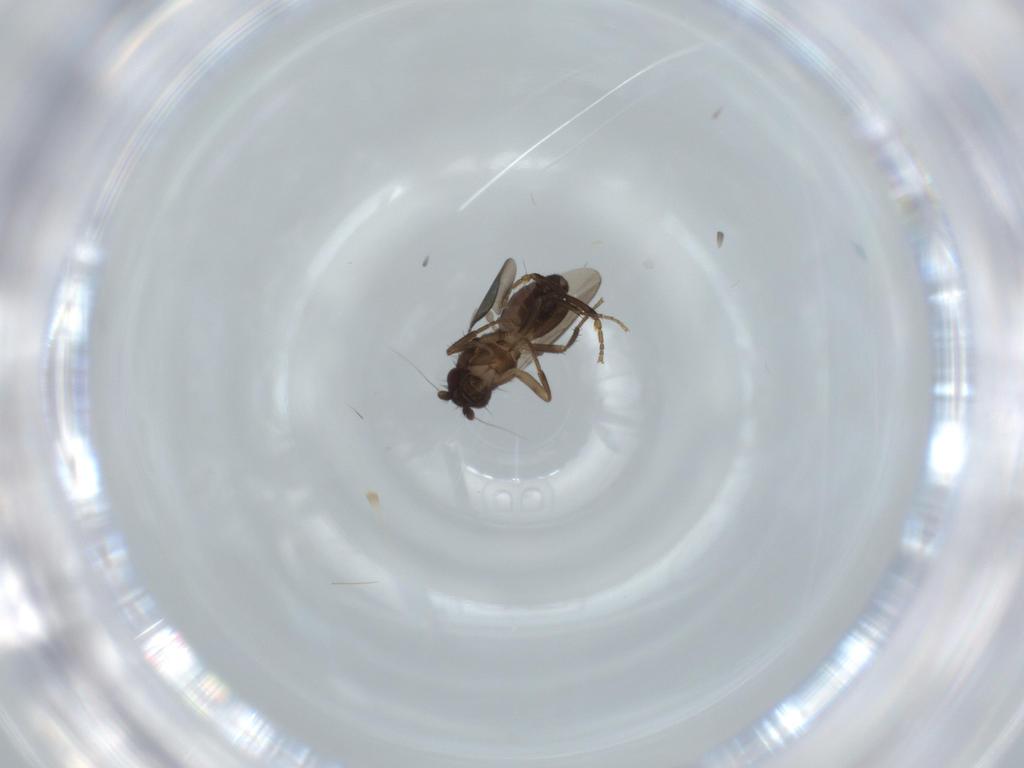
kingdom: Animalia
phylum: Arthropoda
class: Insecta
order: Diptera
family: Sphaeroceridae
